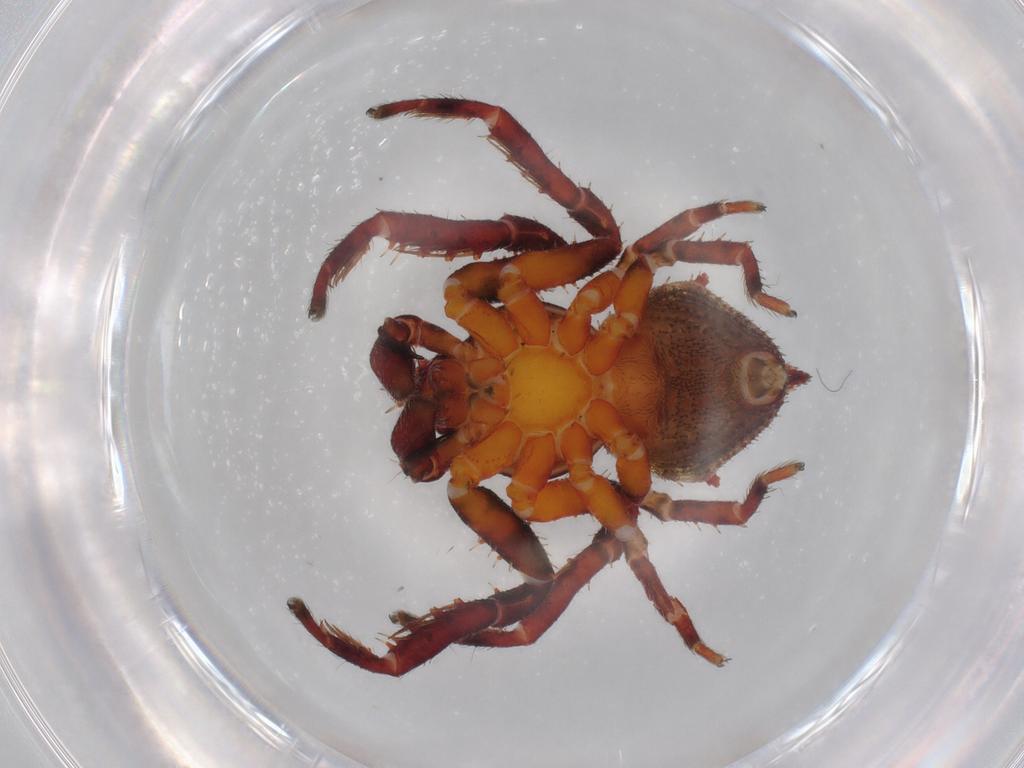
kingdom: Animalia
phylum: Arthropoda
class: Arachnida
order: Araneae
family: Thomisidae
